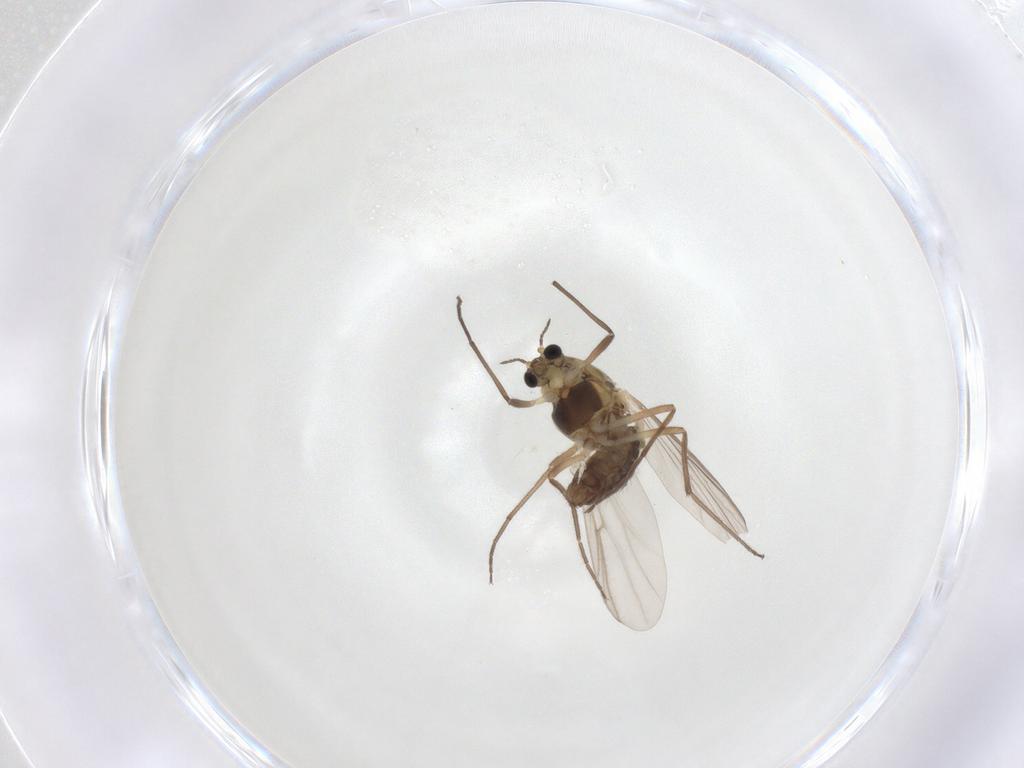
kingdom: Animalia
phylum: Arthropoda
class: Insecta
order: Diptera
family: Chironomidae
